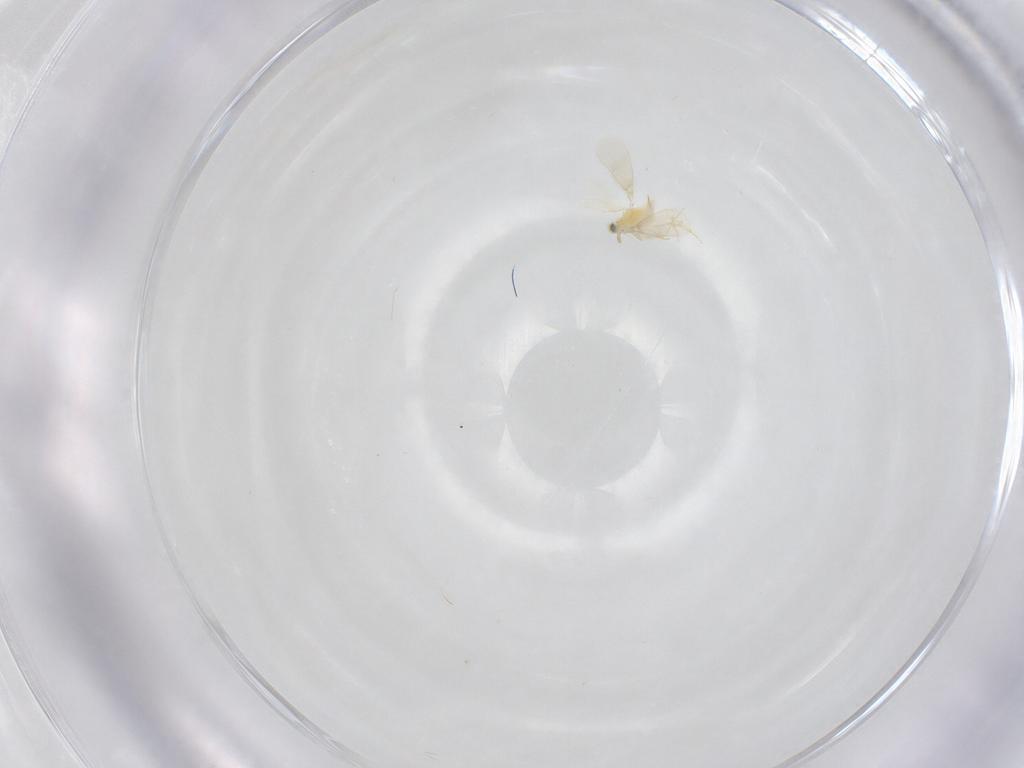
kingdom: Animalia
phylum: Arthropoda
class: Insecta
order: Hymenoptera
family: Aphelinidae
